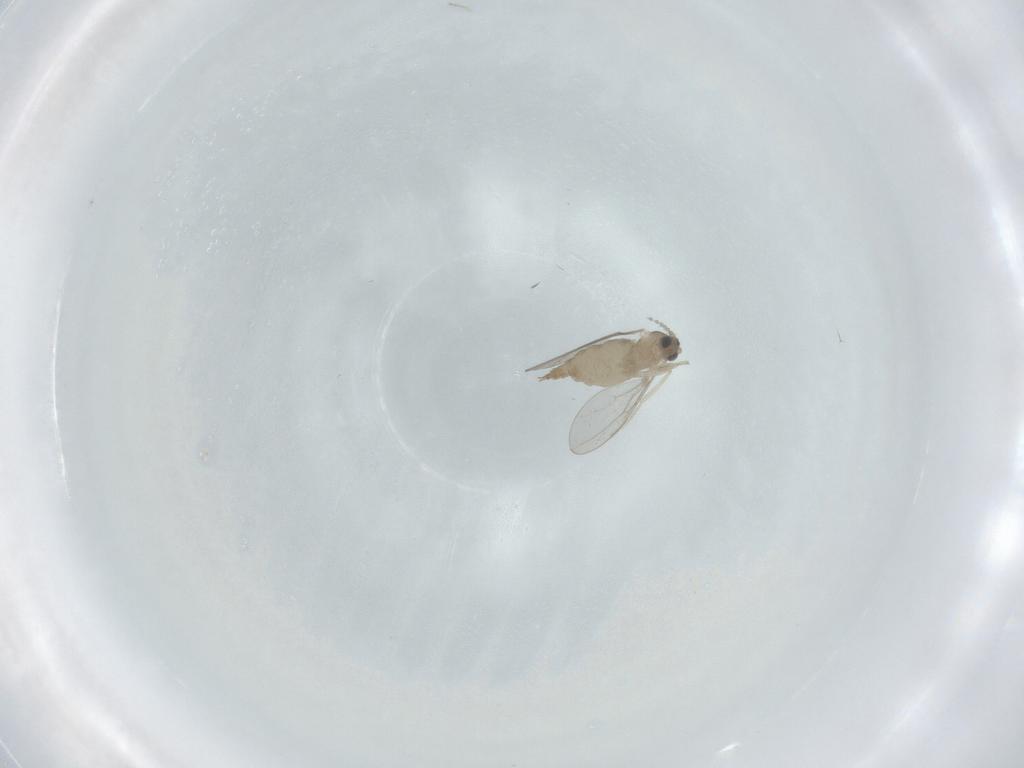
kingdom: Animalia
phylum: Arthropoda
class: Insecta
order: Diptera
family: Cecidomyiidae
